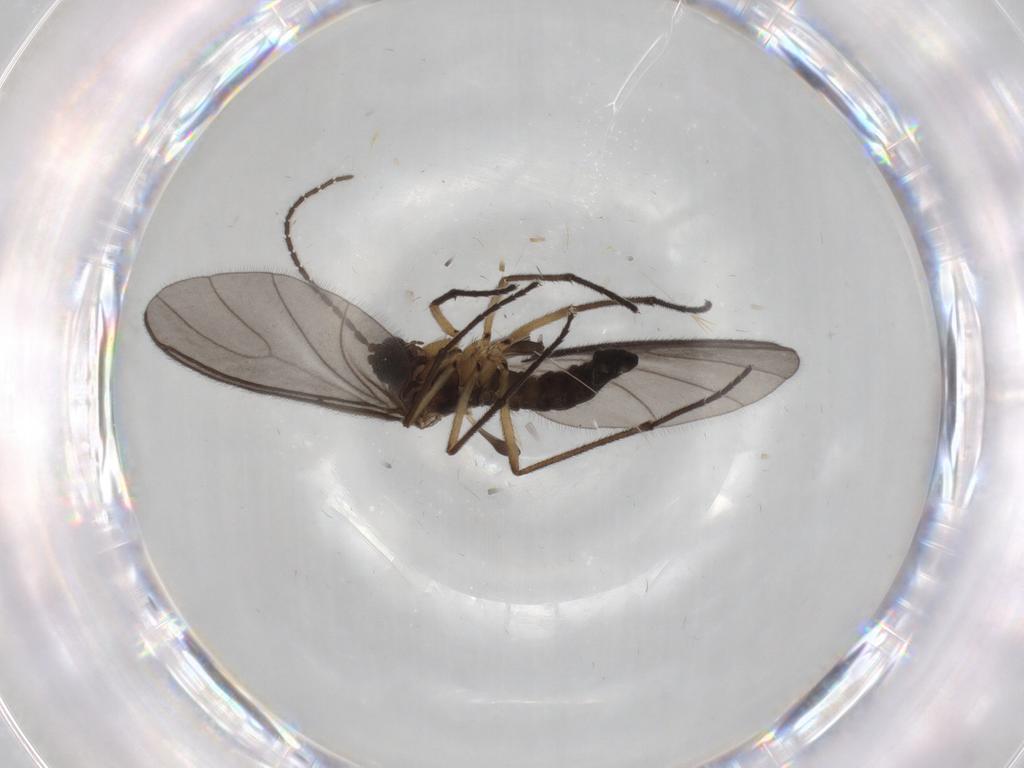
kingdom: Animalia
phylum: Arthropoda
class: Insecta
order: Diptera
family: Sciaridae
